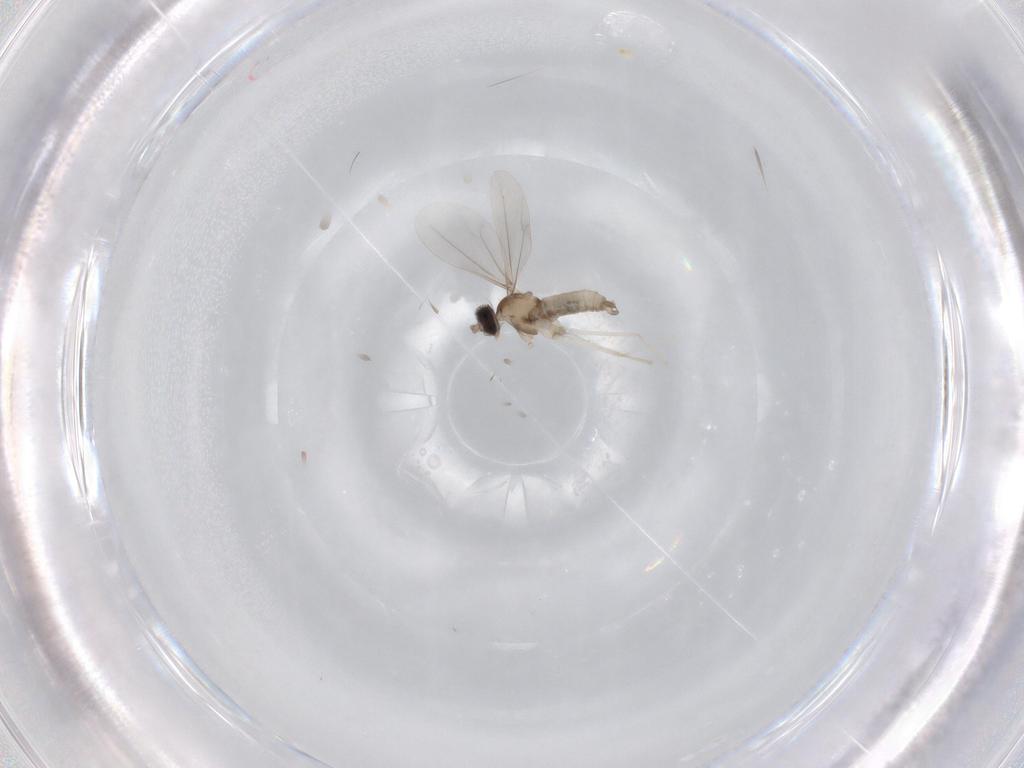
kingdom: Animalia
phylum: Arthropoda
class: Insecta
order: Diptera
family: Cecidomyiidae
